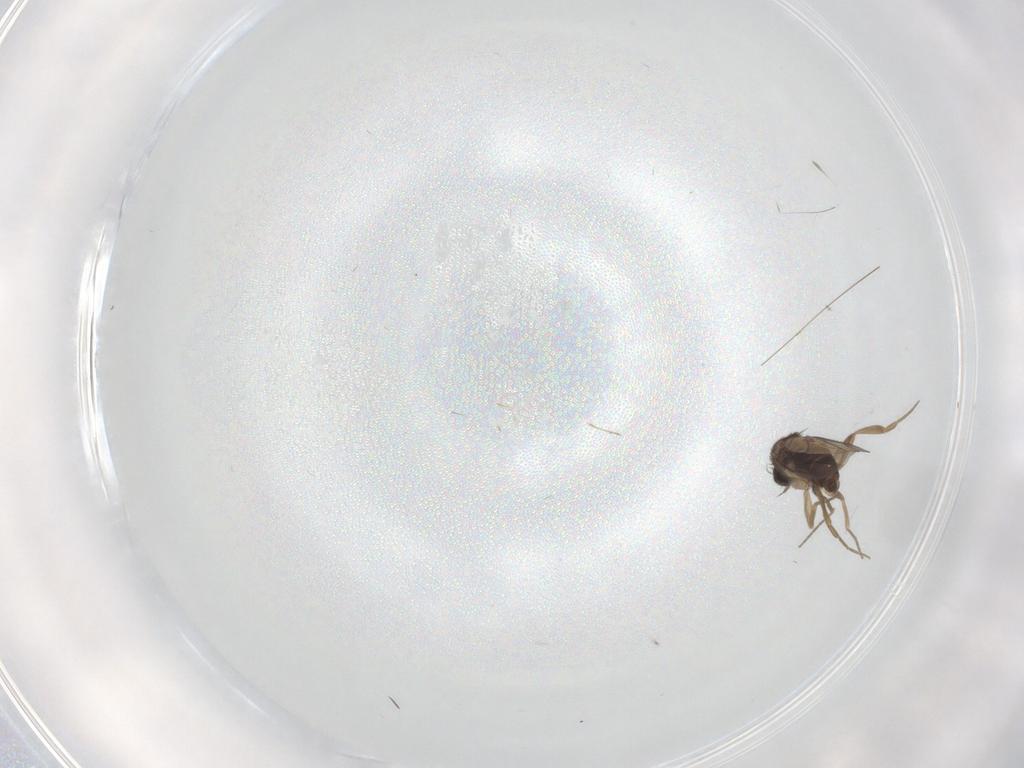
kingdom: Animalia
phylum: Arthropoda
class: Insecta
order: Diptera
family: Phoridae
